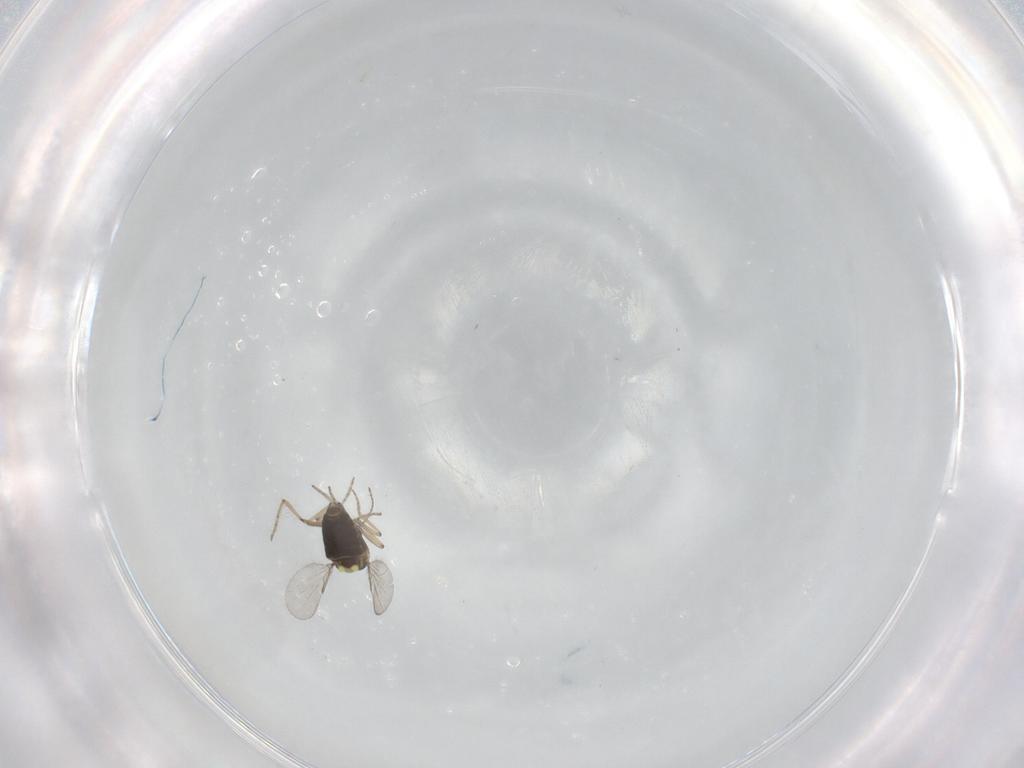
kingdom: Animalia
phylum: Arthropoda
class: Insecta
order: Diptera
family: Ceratopogonidae
